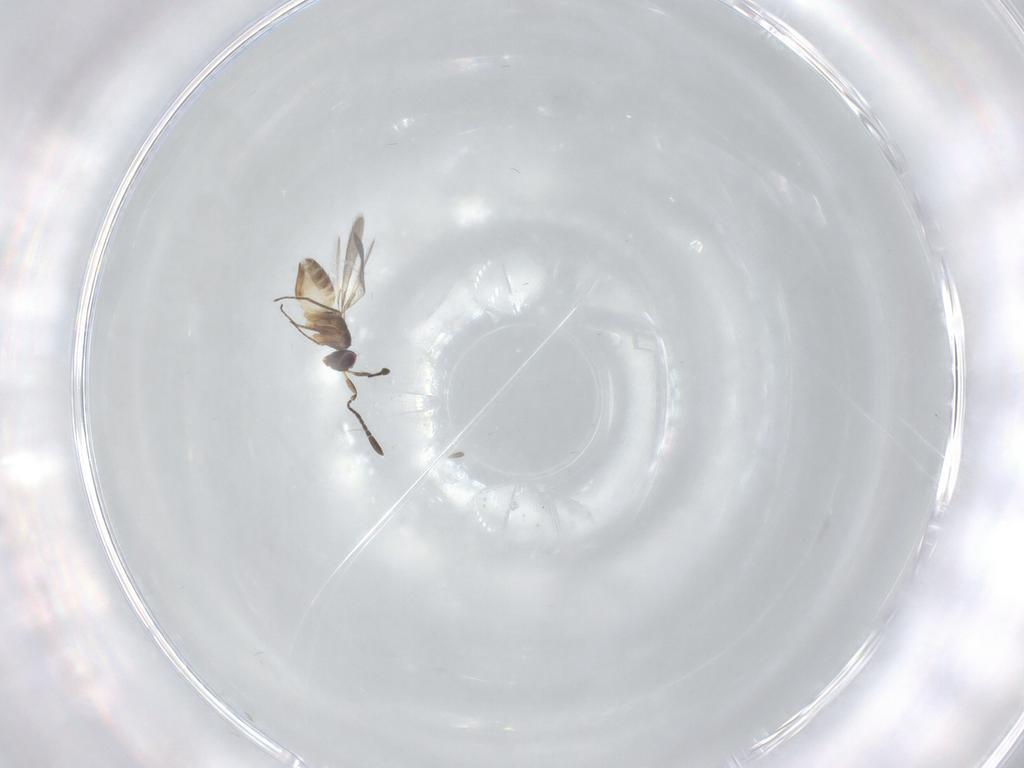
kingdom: Animalia
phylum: Arthropoda
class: Insecta
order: Hymenoptera
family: Mymaridae
